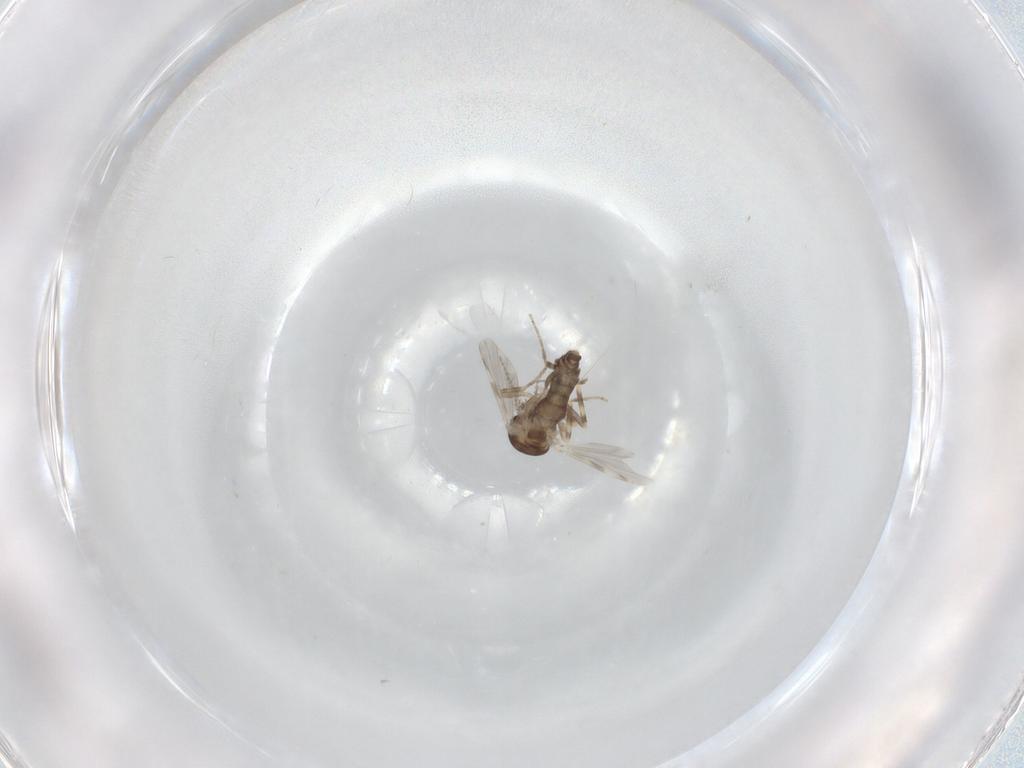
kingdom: Animalia
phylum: Arthropoda
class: Insecta
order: Diptera
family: Ceratopogonidae
